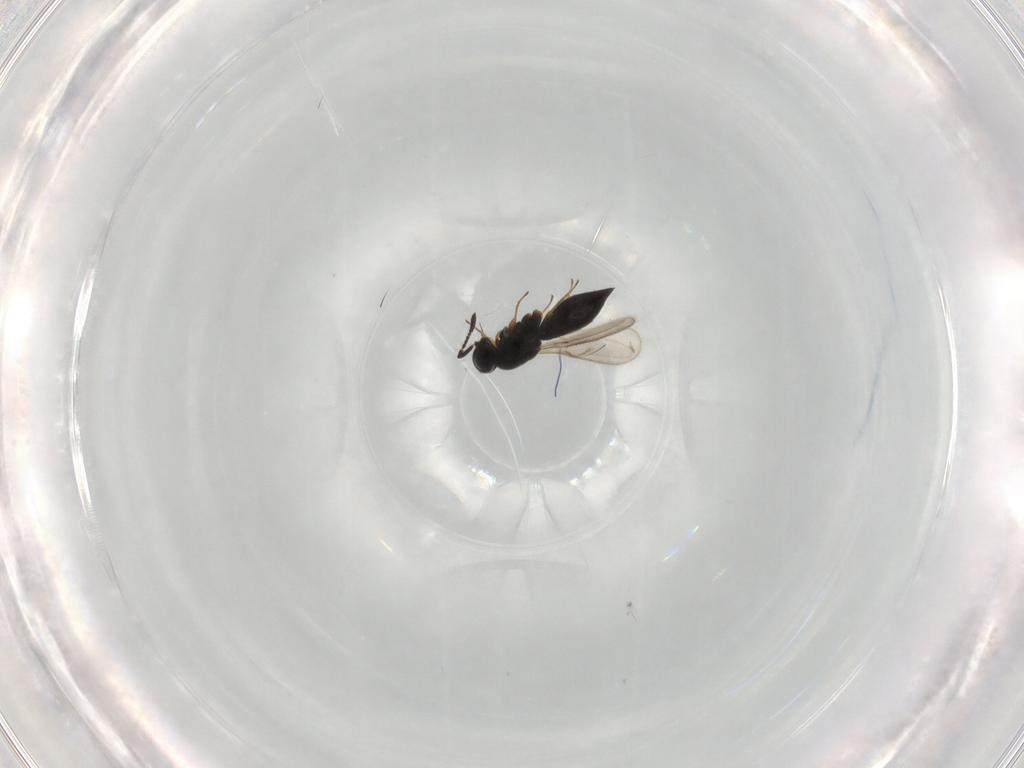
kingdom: Animalia
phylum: Arthropoda
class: Insecta
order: Hymenoptera
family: Scelionidae
